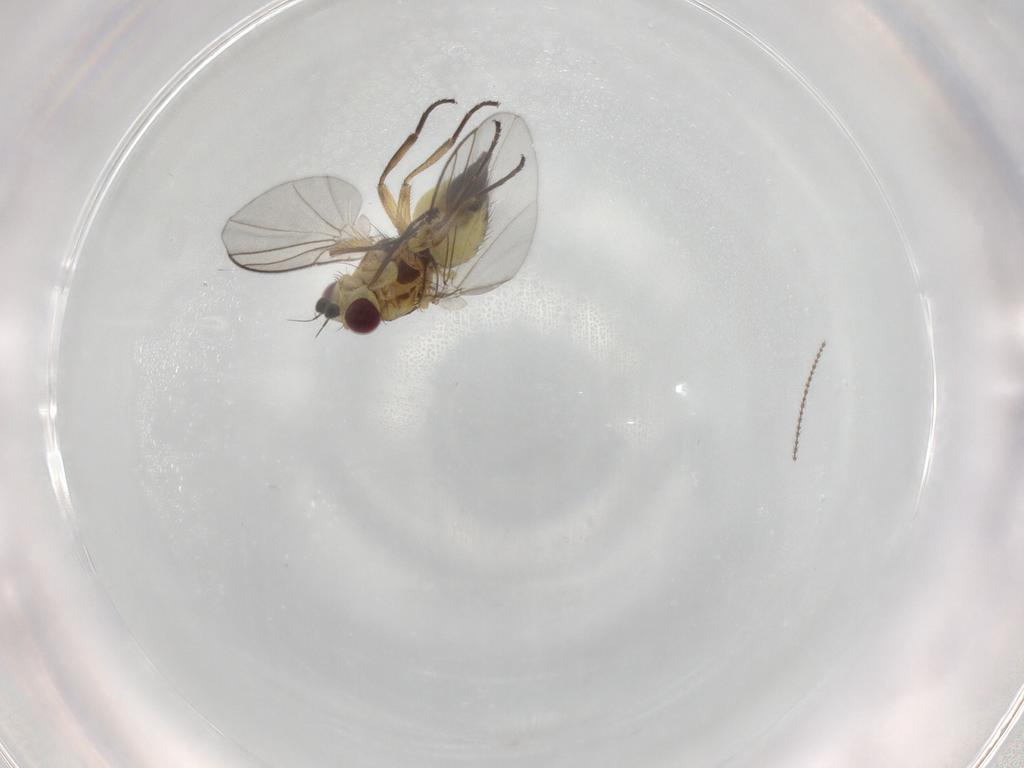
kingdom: Animalia
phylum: Arthropoda
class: Insecta
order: Diptera
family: Agromyzidae
